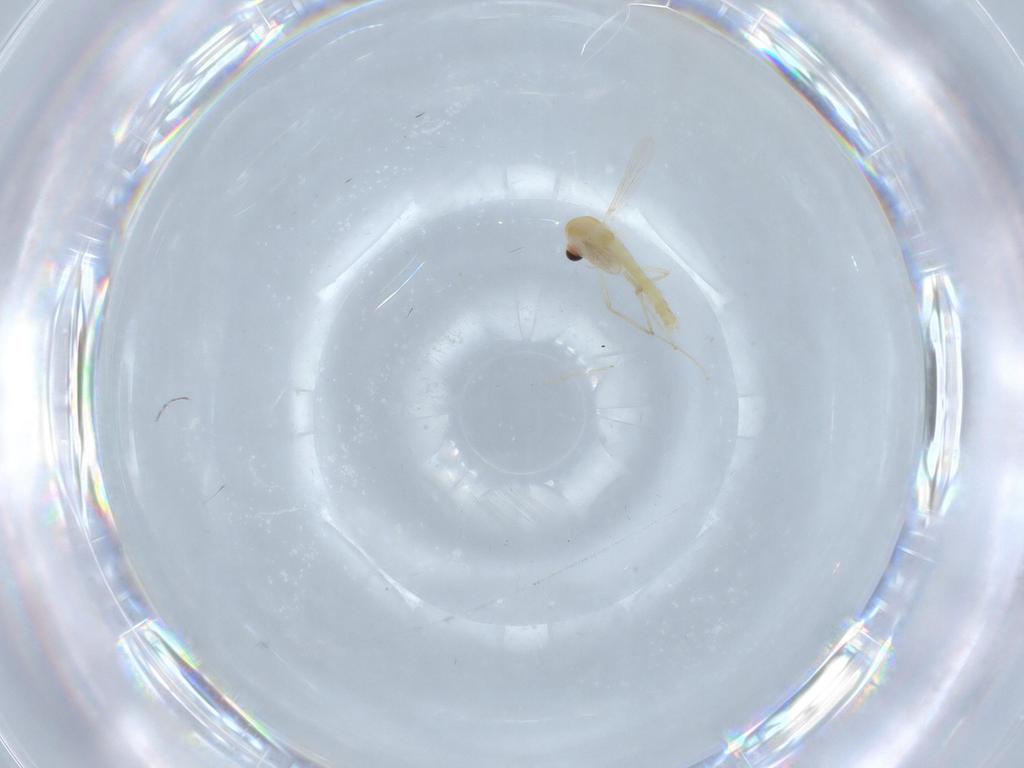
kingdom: Animalia
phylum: Arthropoda
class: Insecta
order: Diptera
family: Chironomidae
